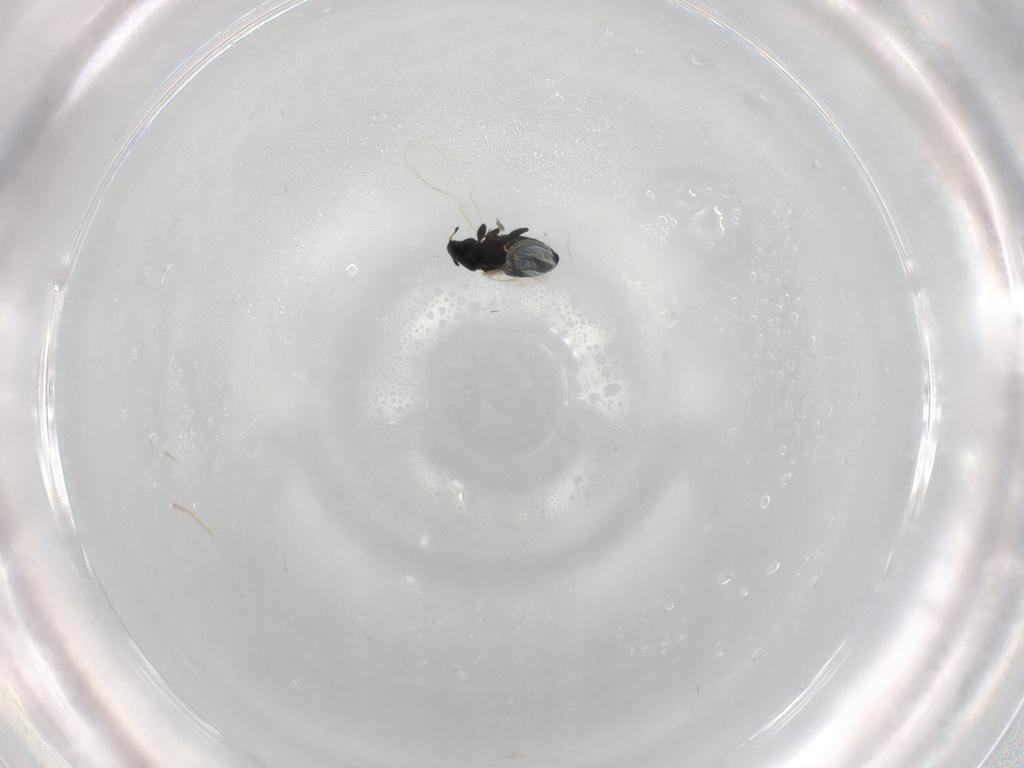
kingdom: Animalia
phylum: Arthropoda
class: Insecta
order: Coleoptera
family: Curculionidae
